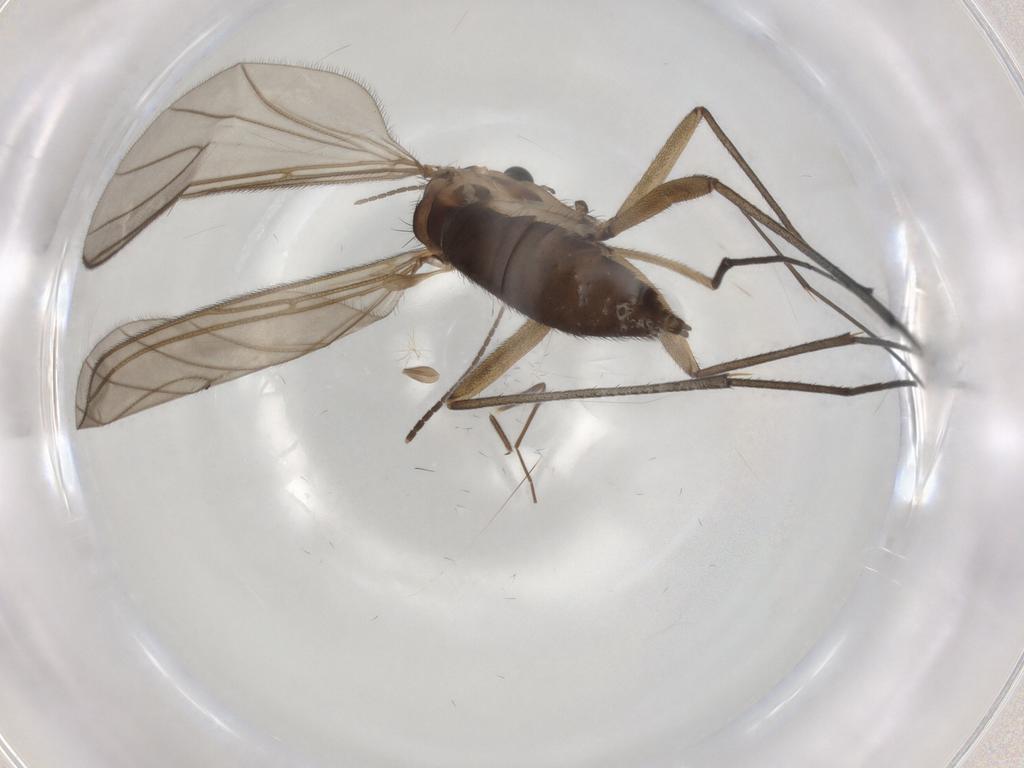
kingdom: Animalia
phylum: Arthropoda
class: Insecta
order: Diptera
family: Sciaridae
